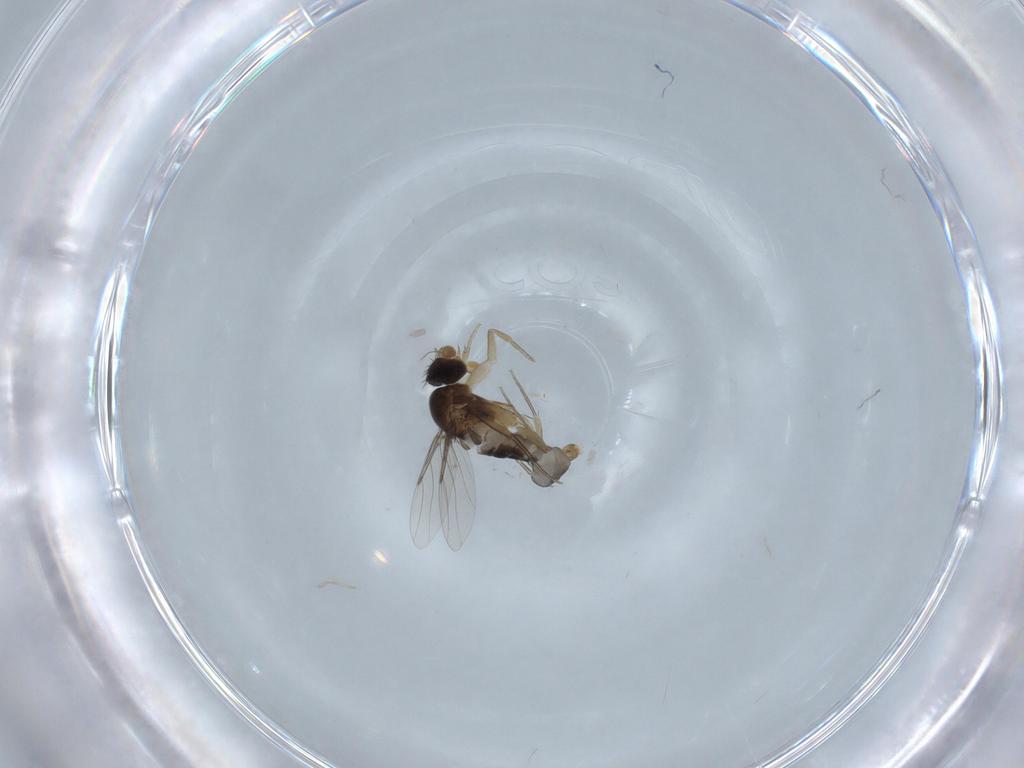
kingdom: Animalia
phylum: Arthropoda
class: Insecta
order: Diptera
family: Phoridae
